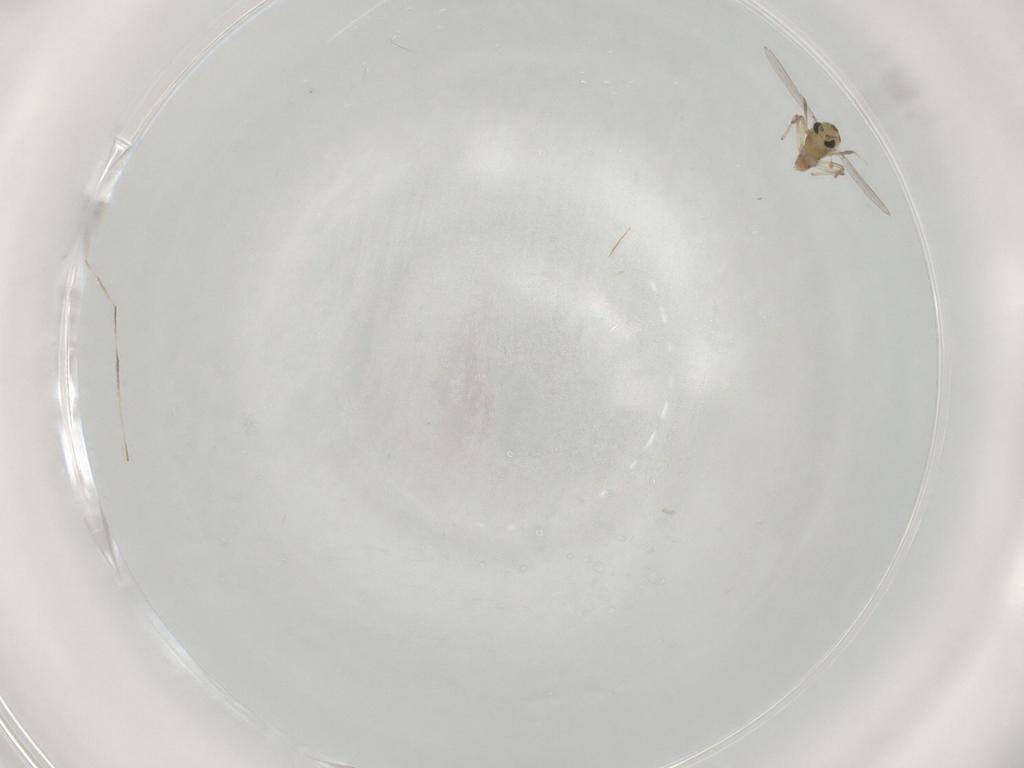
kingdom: Animalia
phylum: Arthropoda
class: Insecta
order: Diptera
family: Chironomidae
